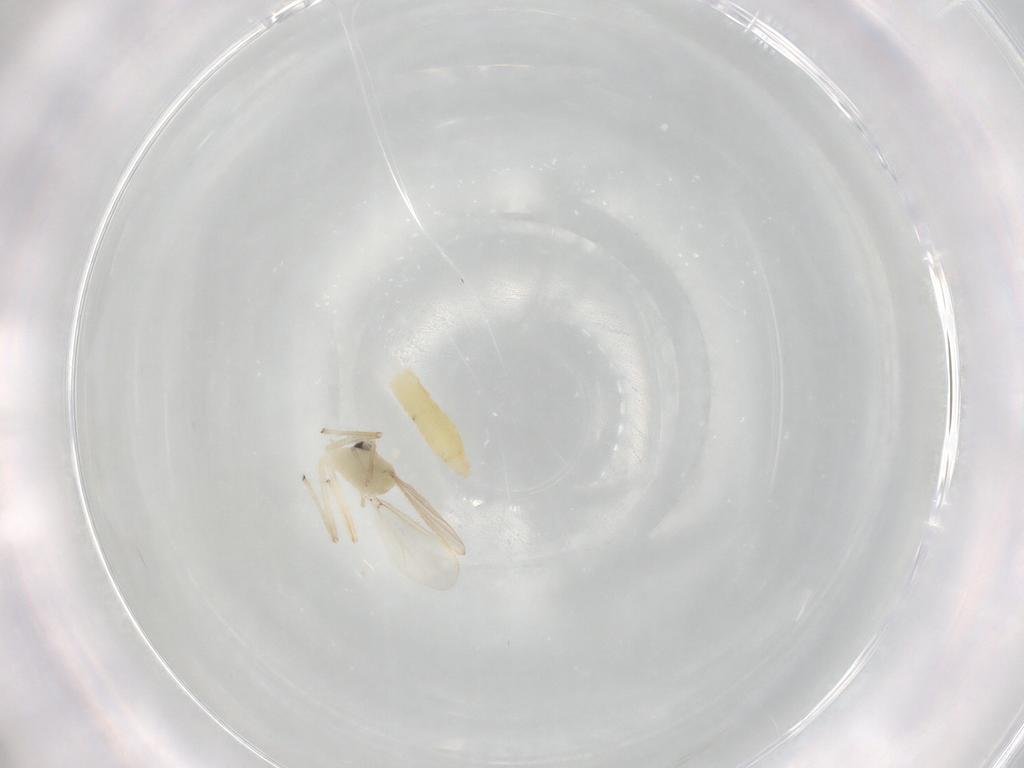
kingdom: Animalia
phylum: Arthropoda
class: Insecta
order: Diptera
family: Chironomidae
